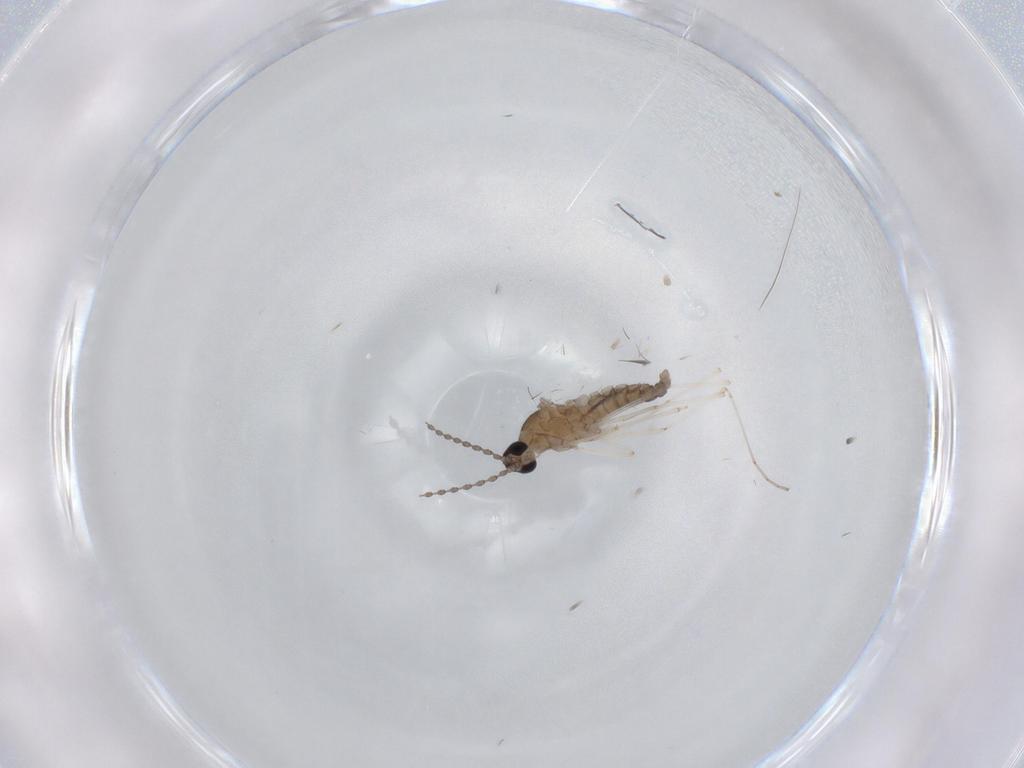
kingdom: Animalia
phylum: Arthropoda
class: Insecta
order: Diptera
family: Cecidomyiidae
